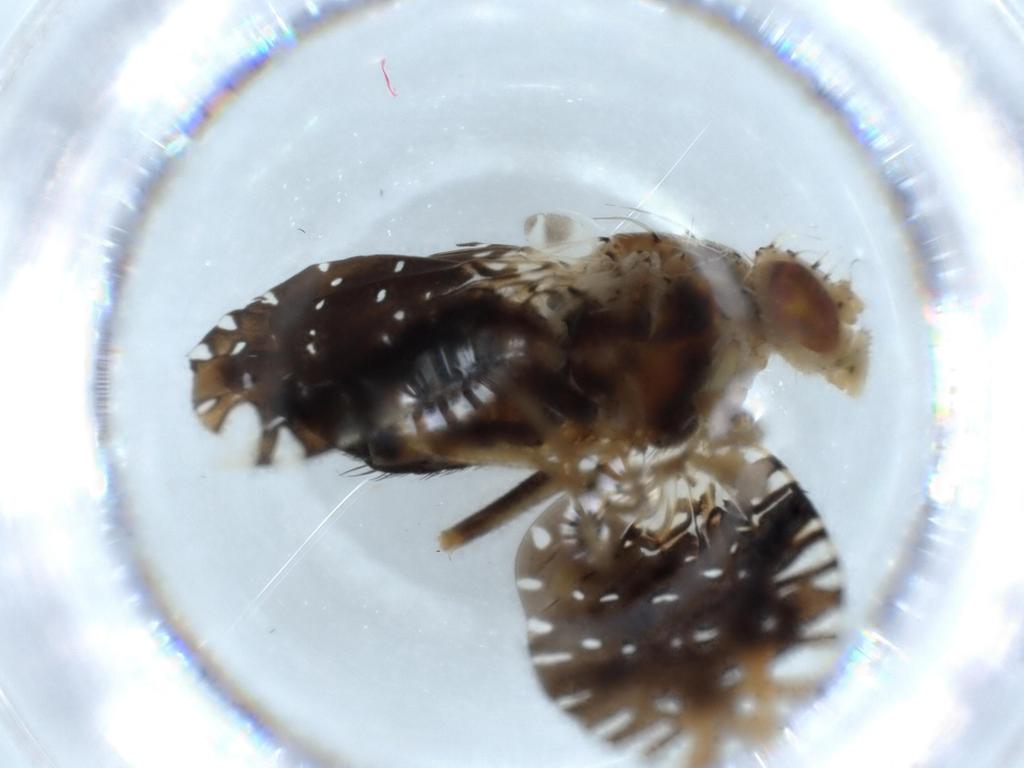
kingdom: Animalia
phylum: Arthropoda
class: Insecta
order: Diptera
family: Tephritidae
